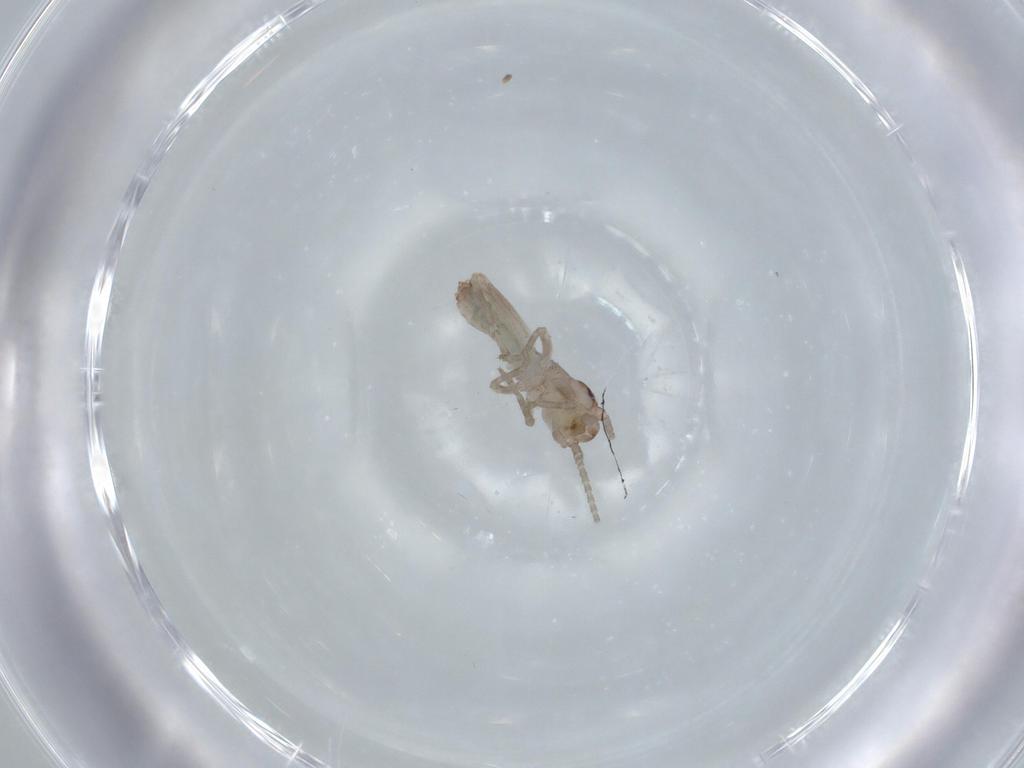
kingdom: Animalia
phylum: Arthropoda
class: Insecta
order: Orthoptera
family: Mogoplistidae
